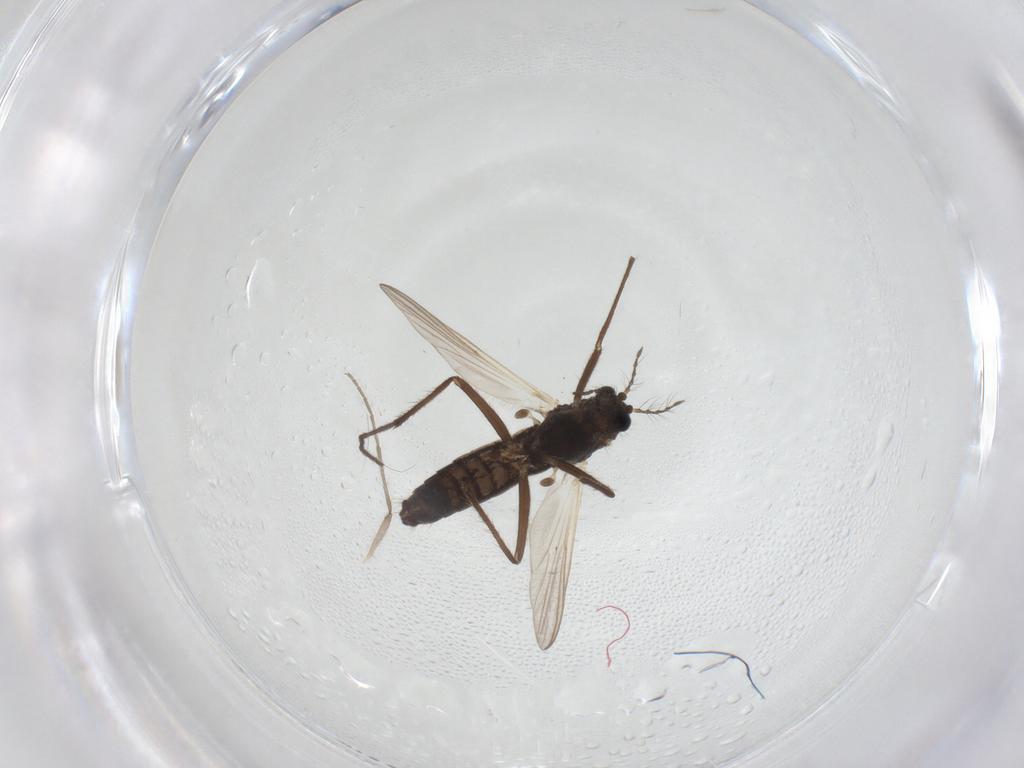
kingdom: Animalia
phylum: Arthropoda
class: Insecta
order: Diptera
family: Chironomidae
